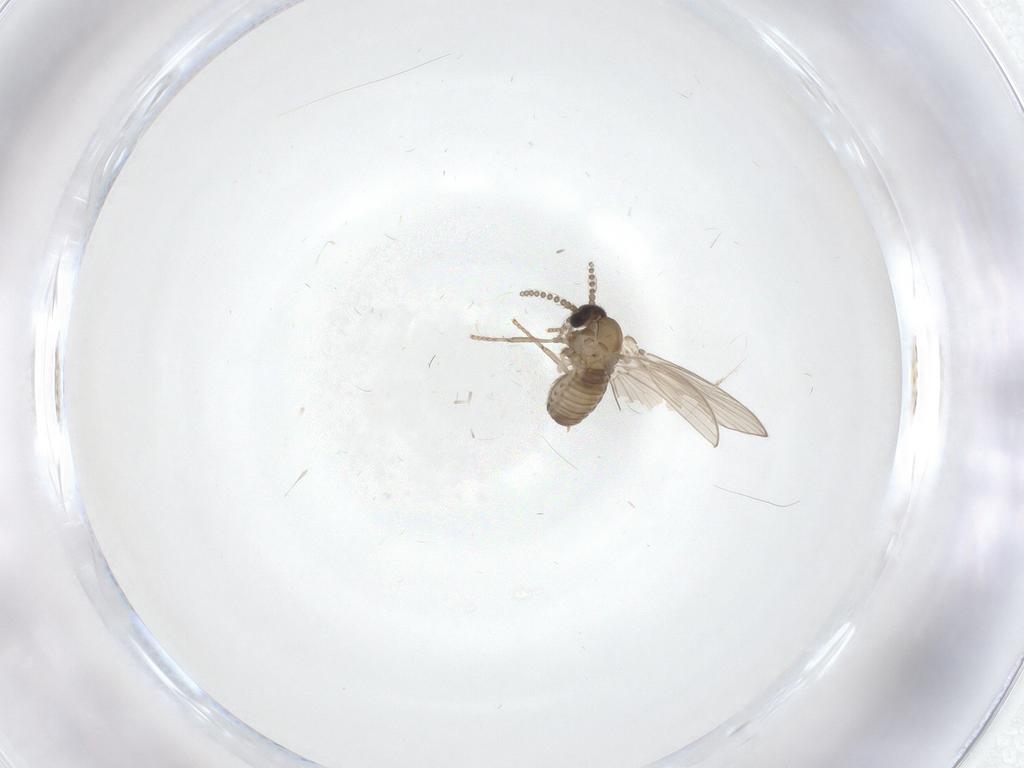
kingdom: Animalia
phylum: Arthropoda
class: Insecta
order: Diptera
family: Psychodidae
